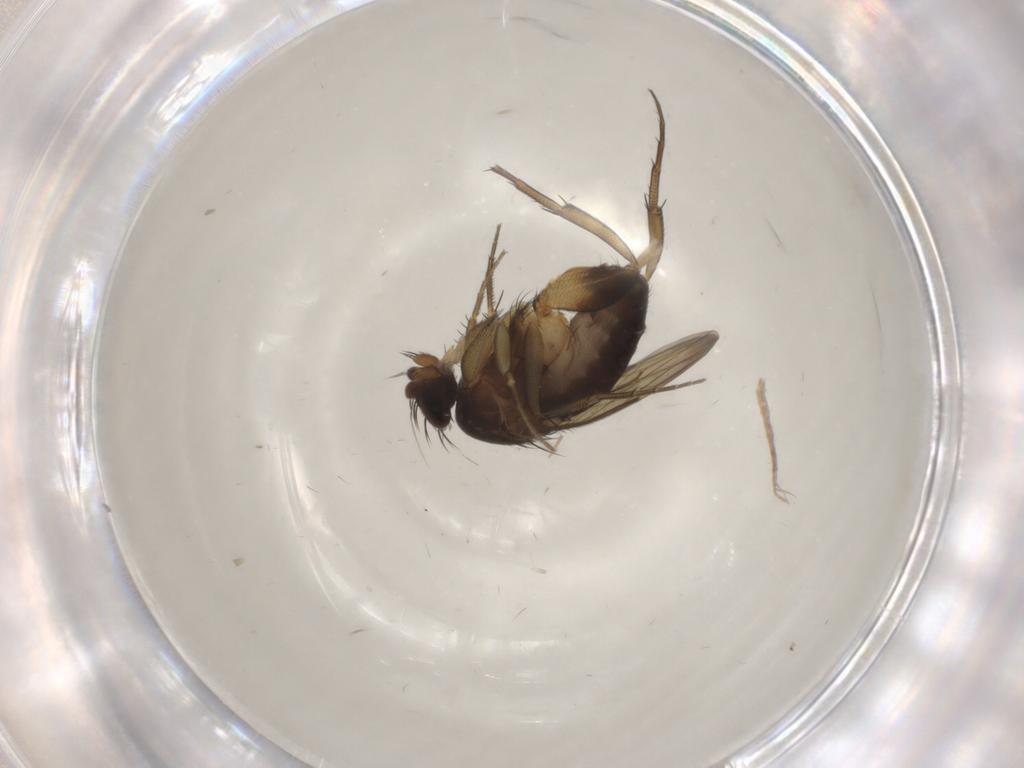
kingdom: Animalia
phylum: Arthropoda
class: Insecta
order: Diptera
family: Phoridae
